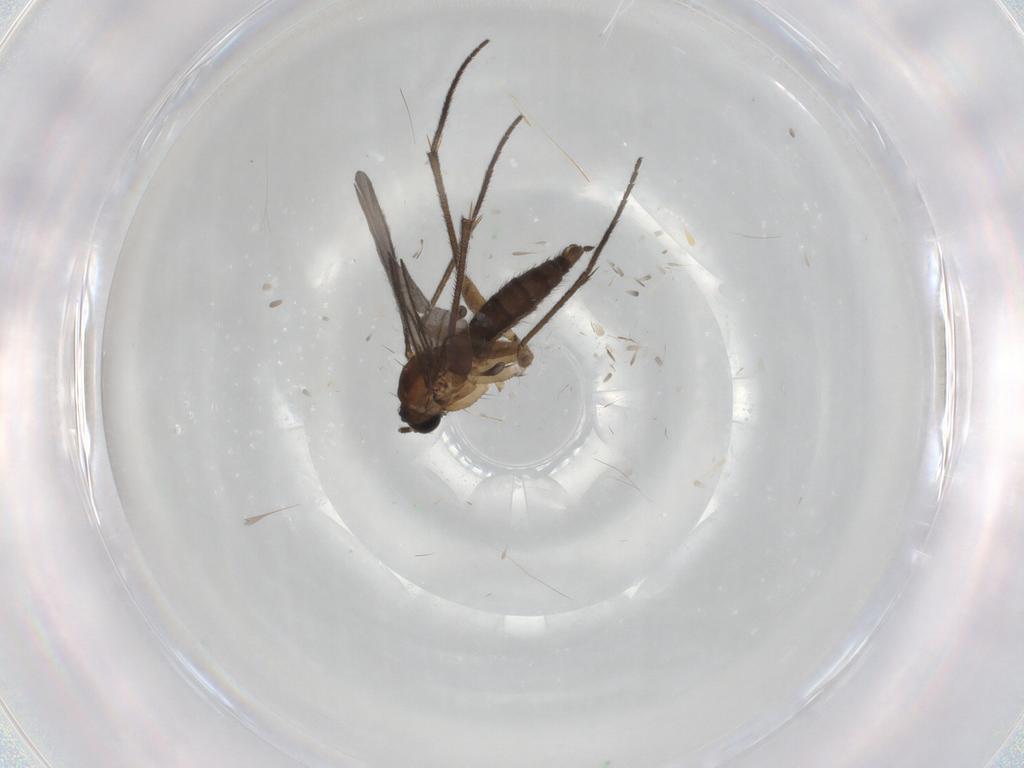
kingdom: Animalia
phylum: Arthropoda
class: Insecta
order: Diptera
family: Sciaridae
